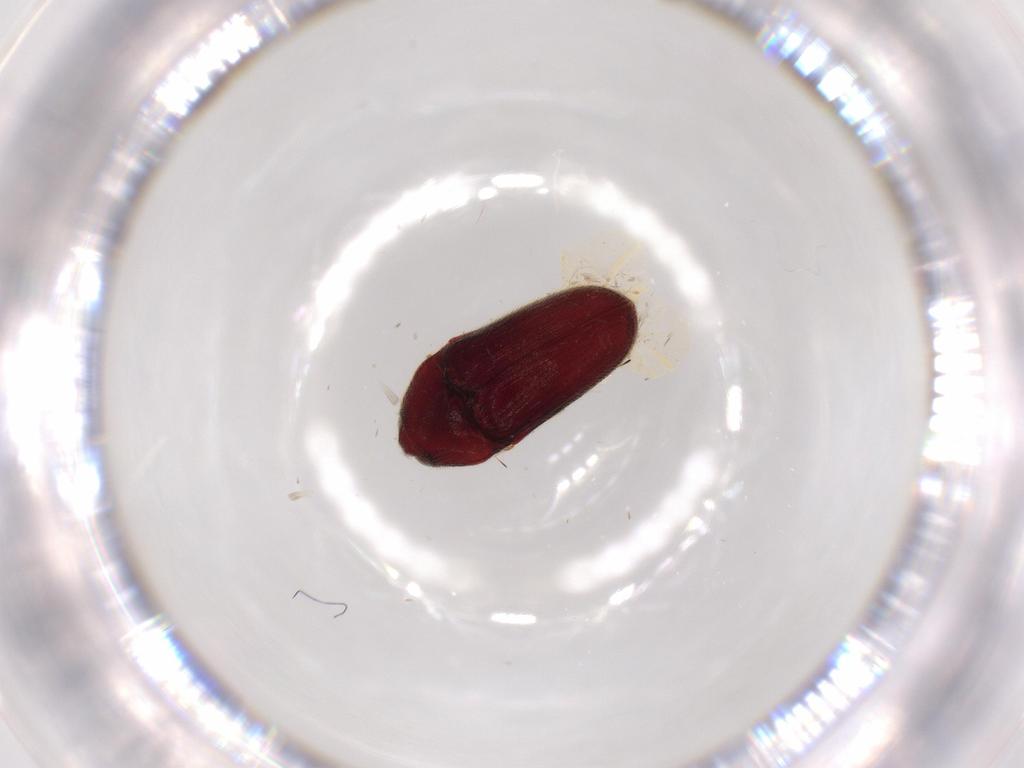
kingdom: Animalia
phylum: Arthropoda
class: Insecta
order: Coleoptera
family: Throscidae
